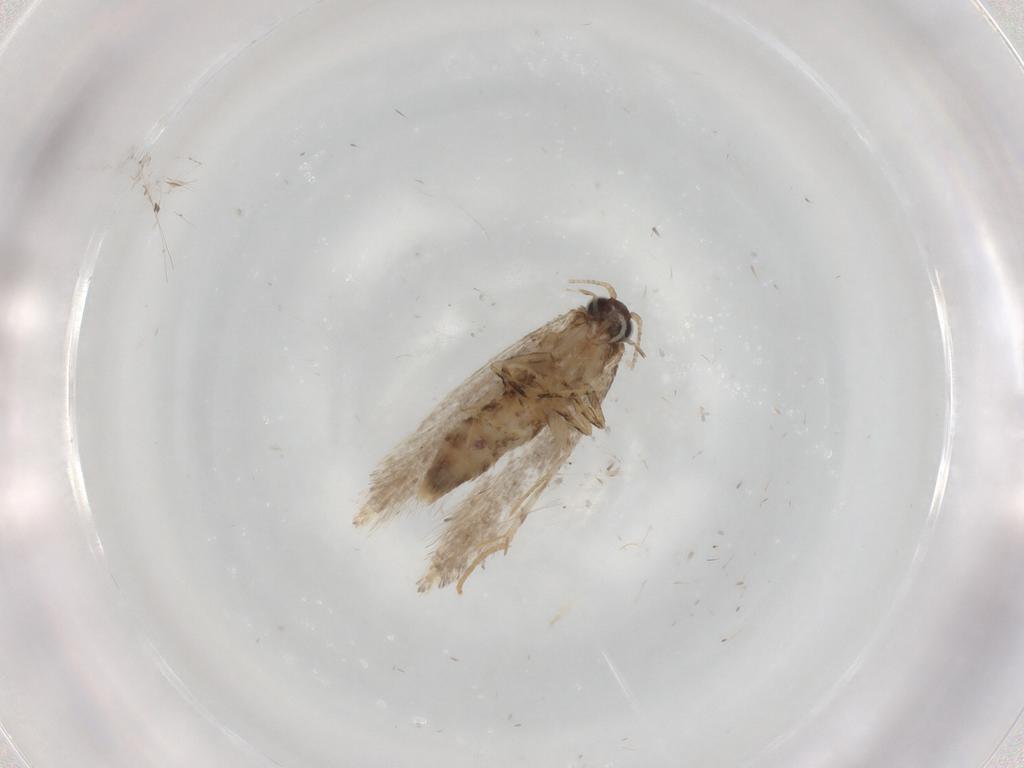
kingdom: Animalia
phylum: Arthropoda
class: Insecta
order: Lepidoptera
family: Tineidae
